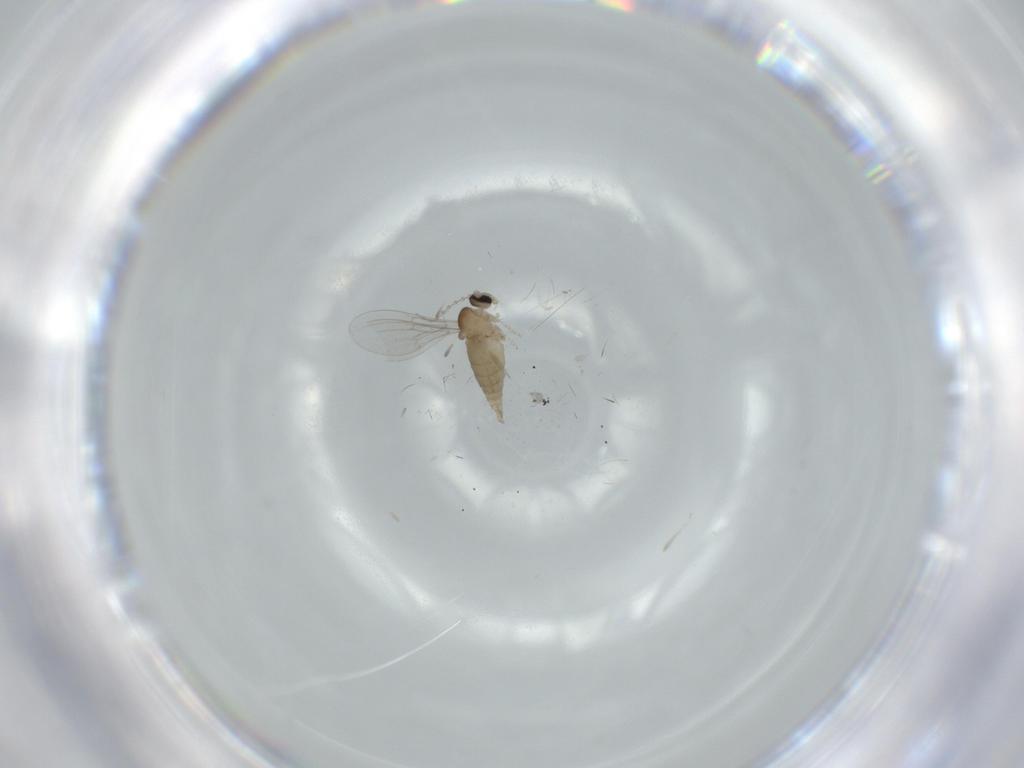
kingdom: Animalia
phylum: Arthropoda
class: Insecta
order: Diptera
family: Cecidomyiidae
